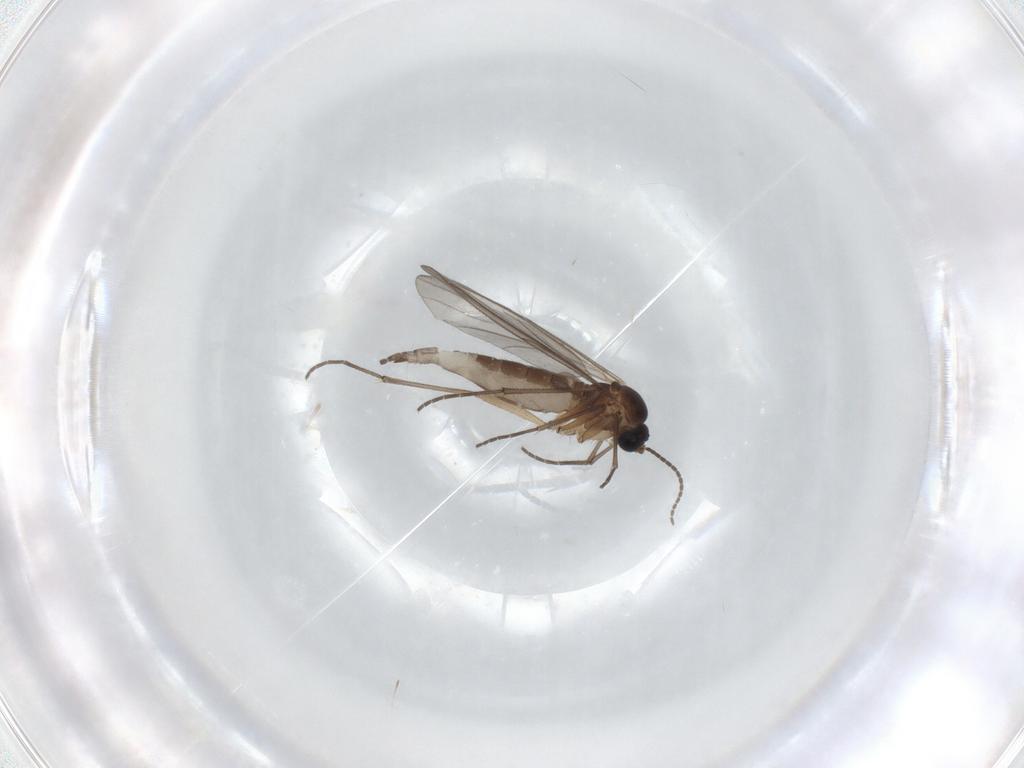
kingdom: Animalia
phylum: Arthropoda
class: Insecta
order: Diptera
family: Sciaridae
